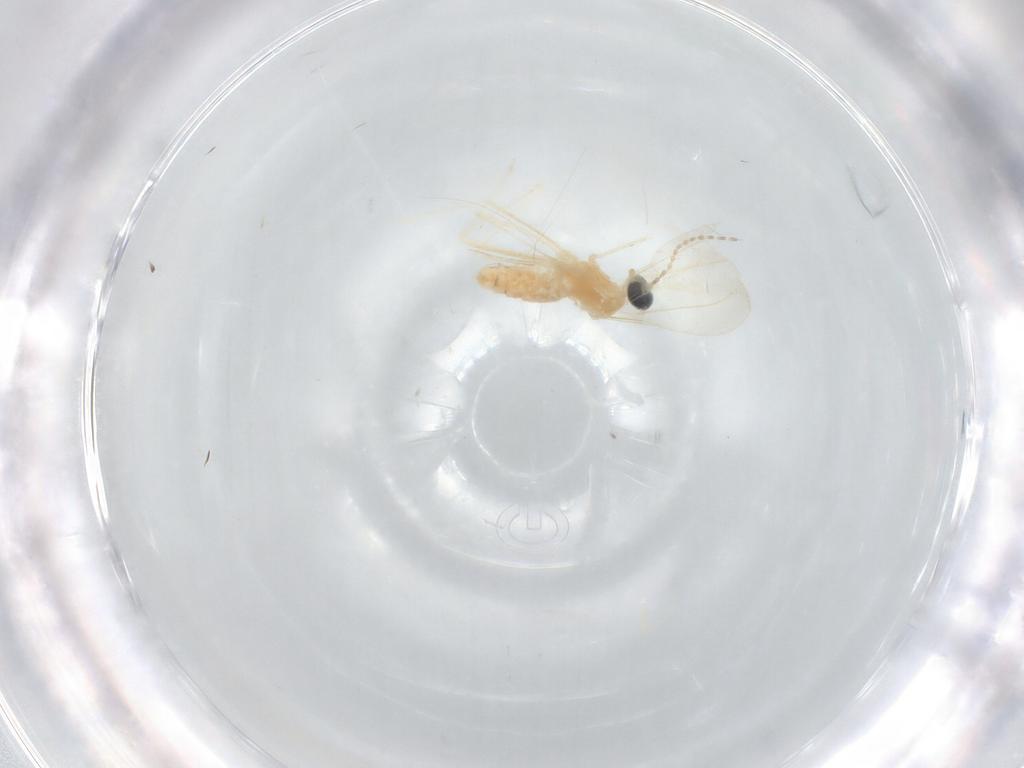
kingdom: Animalia
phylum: Arthropoda
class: Insecta
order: Diptera
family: Cecidomyiidae
